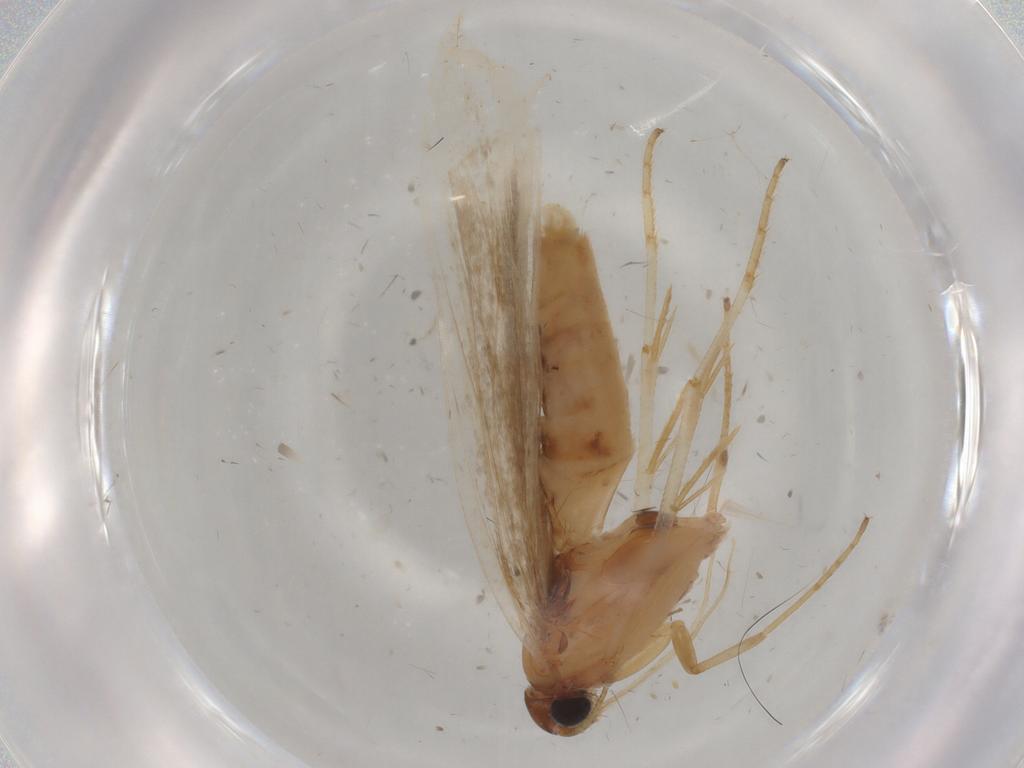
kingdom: Animalia
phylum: Arthropoda
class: Insecta
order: Lepidoptera
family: Gelechiidae
